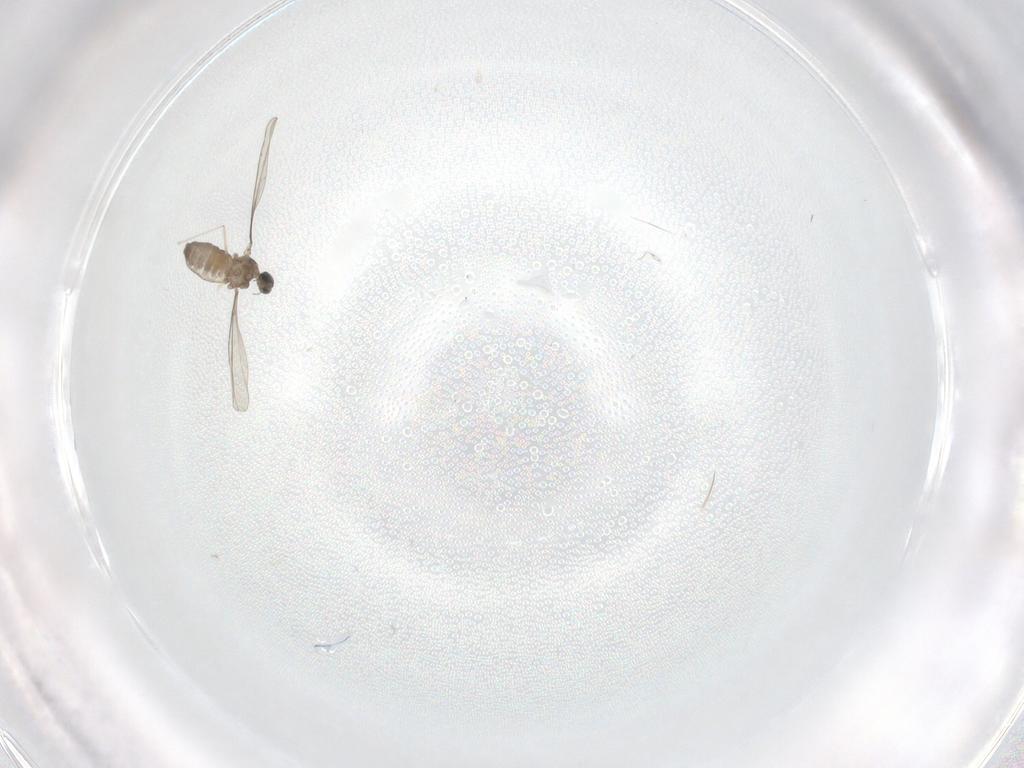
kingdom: Animalia
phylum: Arthropoda
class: Insecta
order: Diptera
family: Cecidomyiidae
